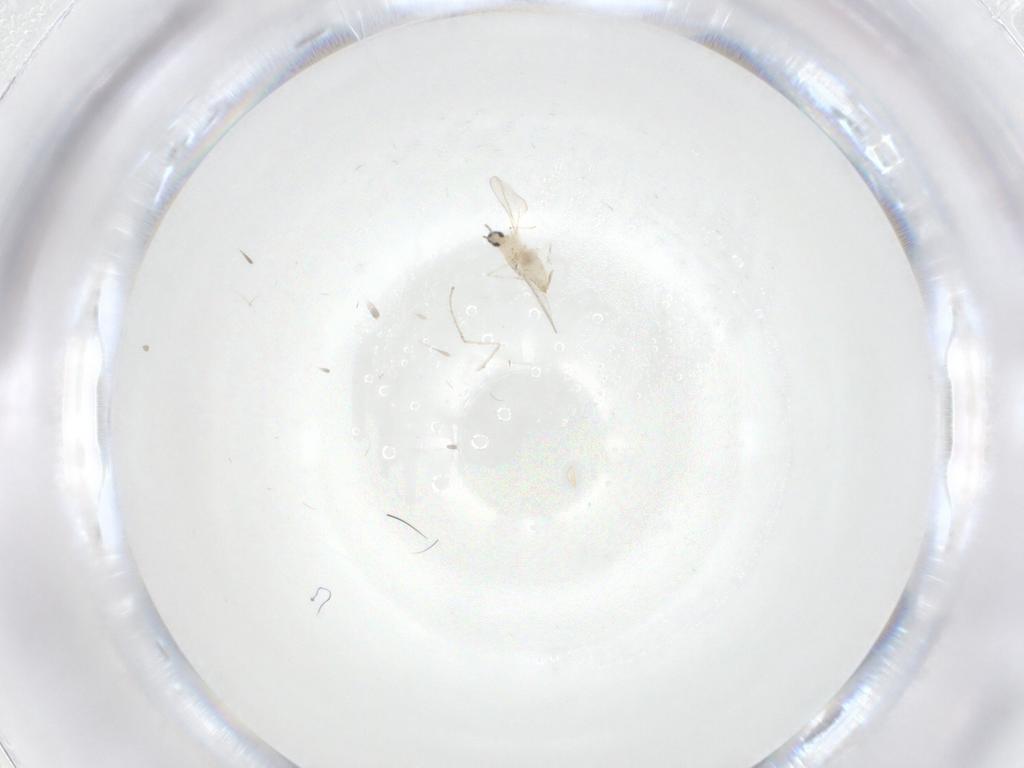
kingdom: Animalia
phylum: Arthropoda
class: Insecta
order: Diptera
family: Cecidomyiidae
